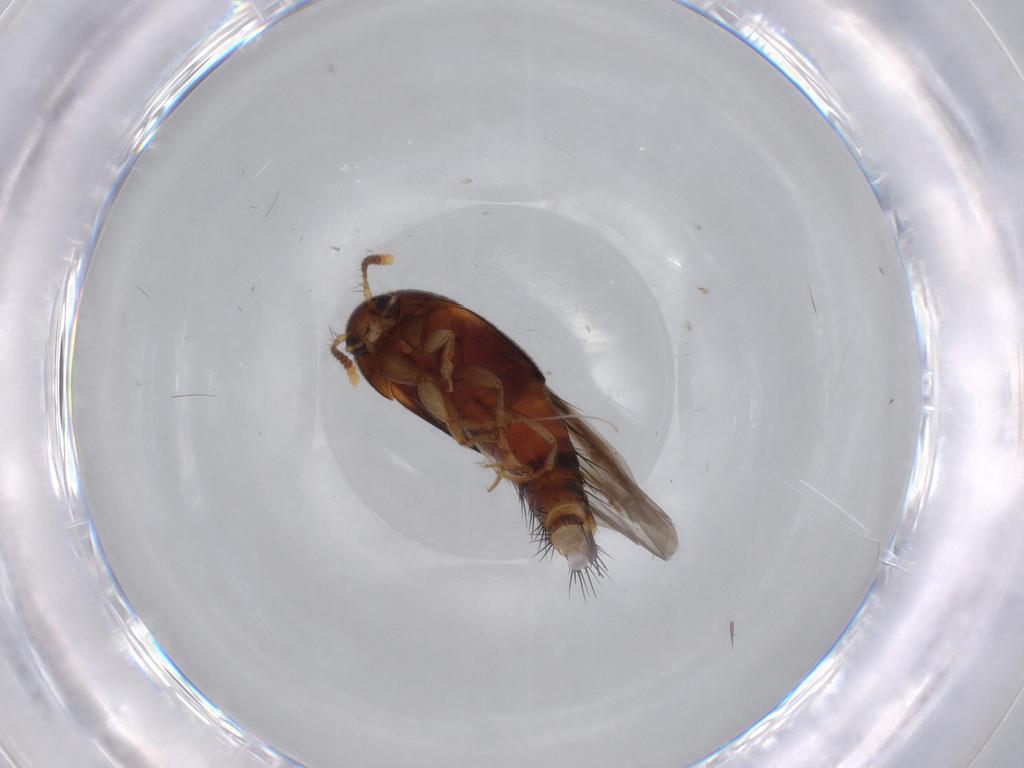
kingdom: Animalia
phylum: Arthropoda
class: Insecta
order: Coleoptera
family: Staphylinidae
